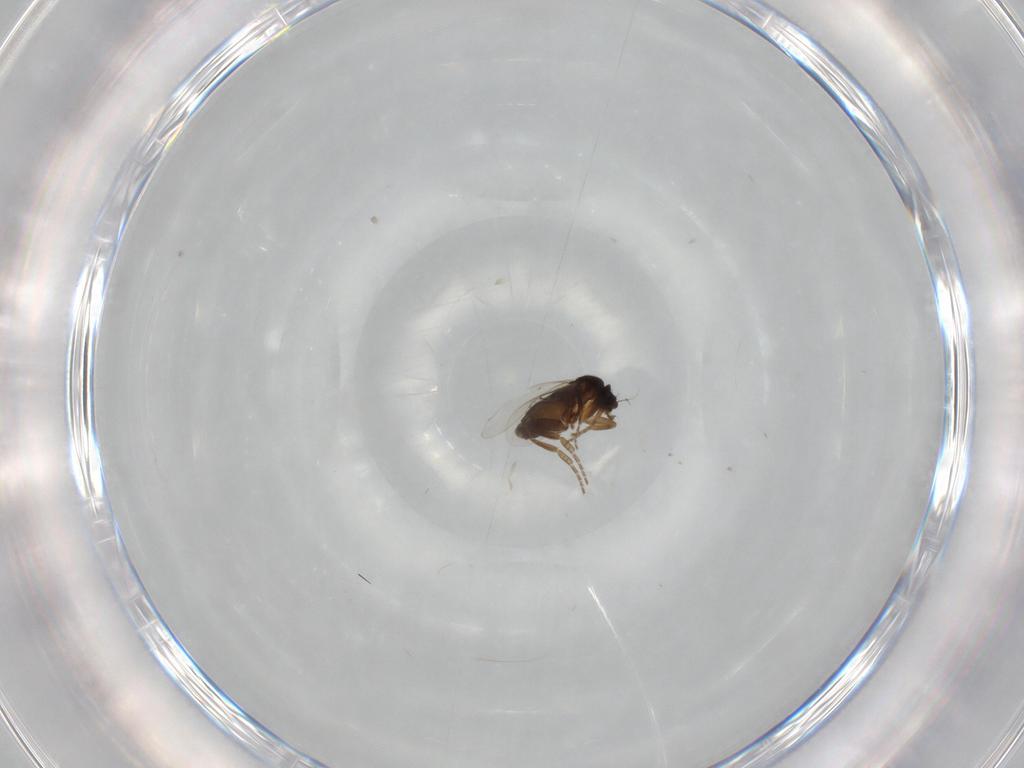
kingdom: Animalia
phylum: Arthropoda
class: Insecta
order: Diptera
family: Phoridae
